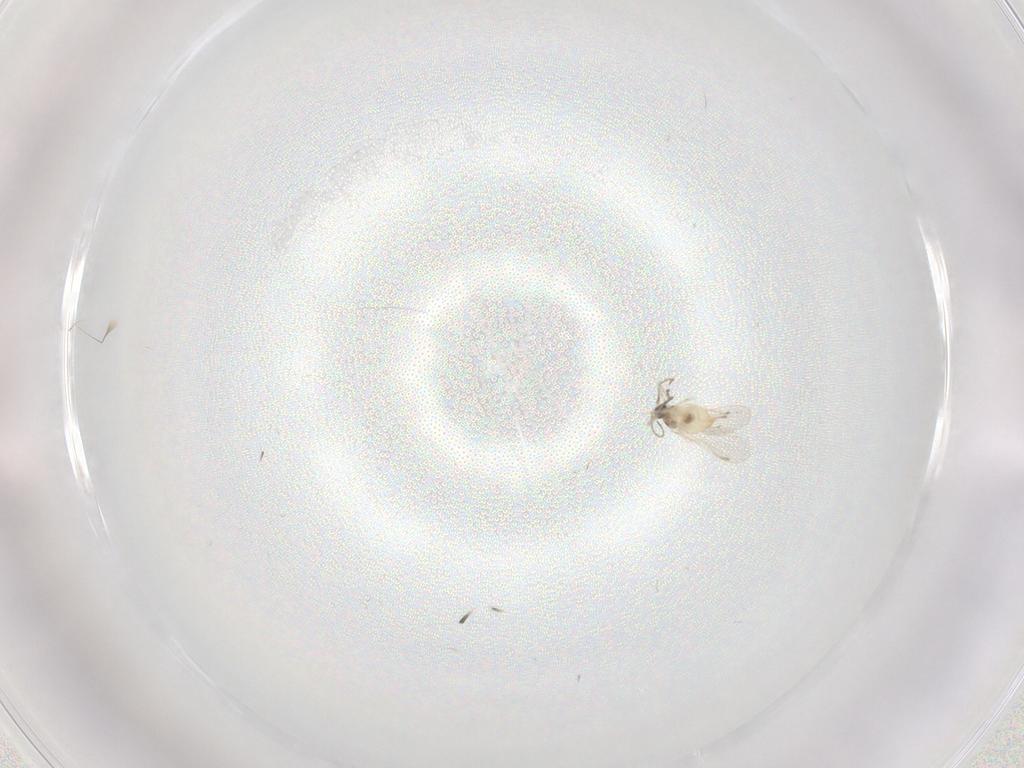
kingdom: Animalia
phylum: Arthropoda
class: Insecta
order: Diptera
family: Cecidomyiidae
